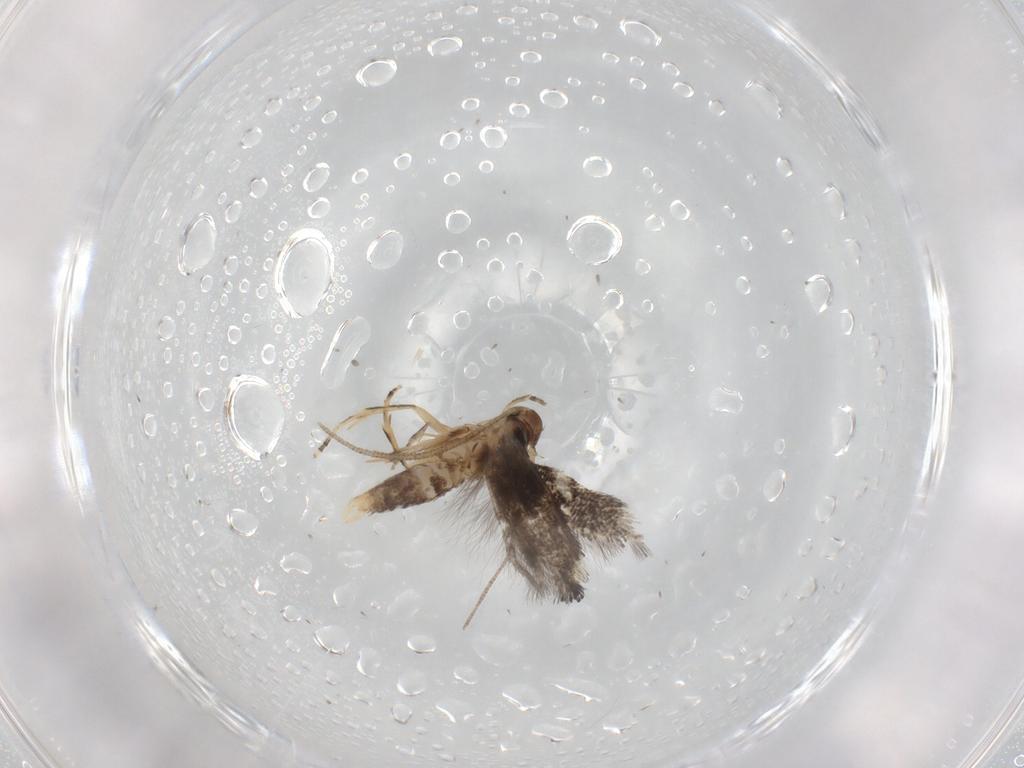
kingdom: Animalia
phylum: Arthropoda
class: Insecta
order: Lepidoptera
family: Elachistidae
